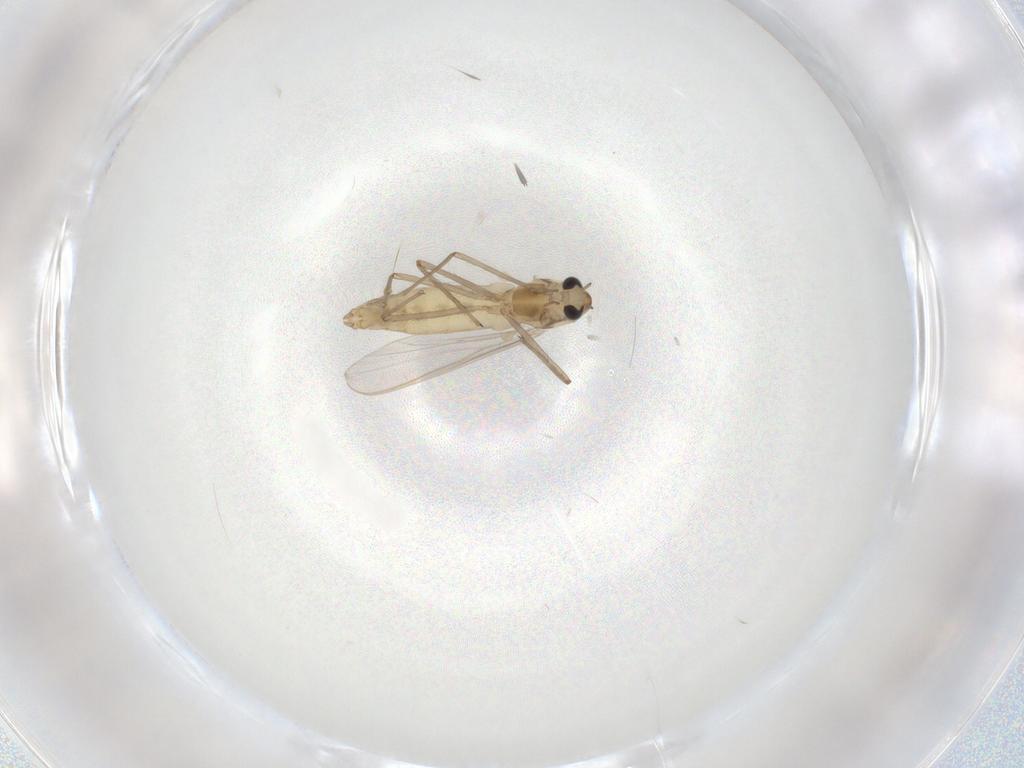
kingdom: Animalia
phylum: Arthropoda
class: Insecta
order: Diptera
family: Chironomidae
